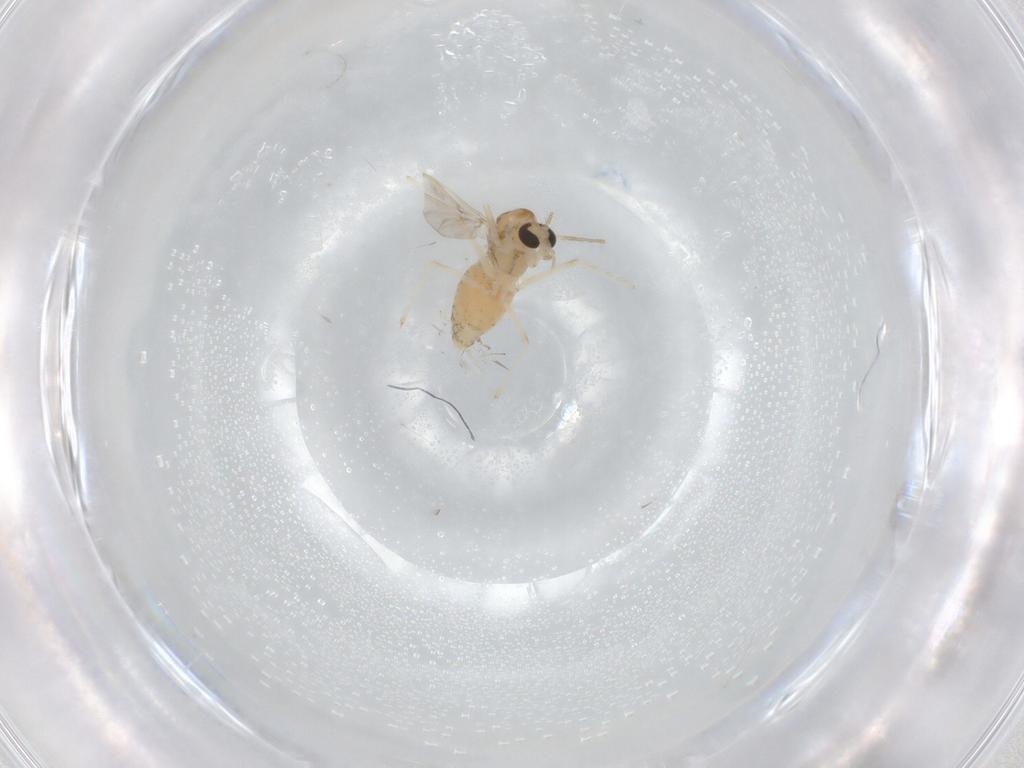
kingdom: Animalia
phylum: Arthropoda
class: Insecta
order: Diptera
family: Chironomidae
